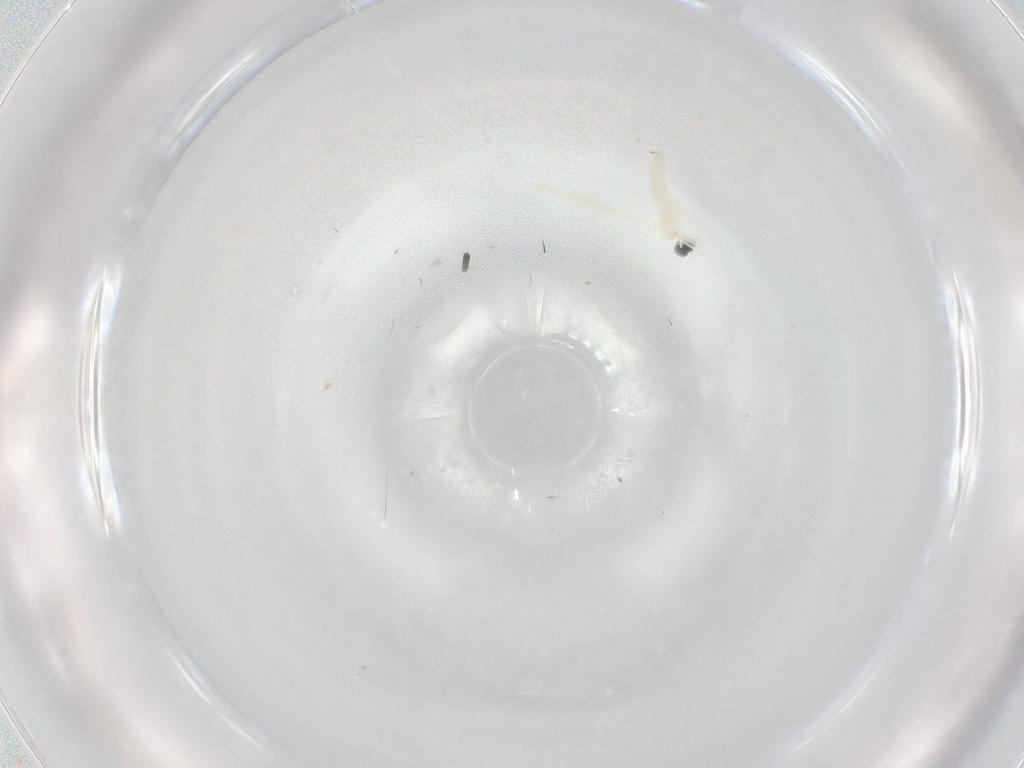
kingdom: Animalia
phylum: Arthropoda
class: Insecta
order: Diptera
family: Cecidomyiidae
